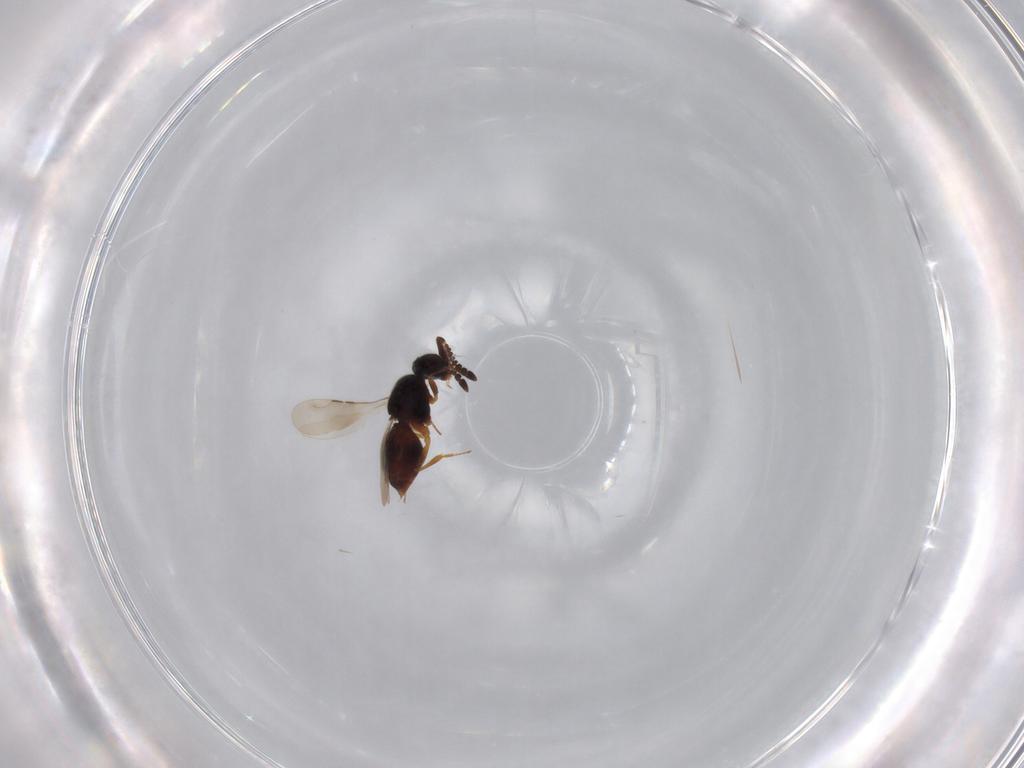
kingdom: Animalia
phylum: Arthropoda
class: Insecta
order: Hymenoptera
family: Ceraphronidae
